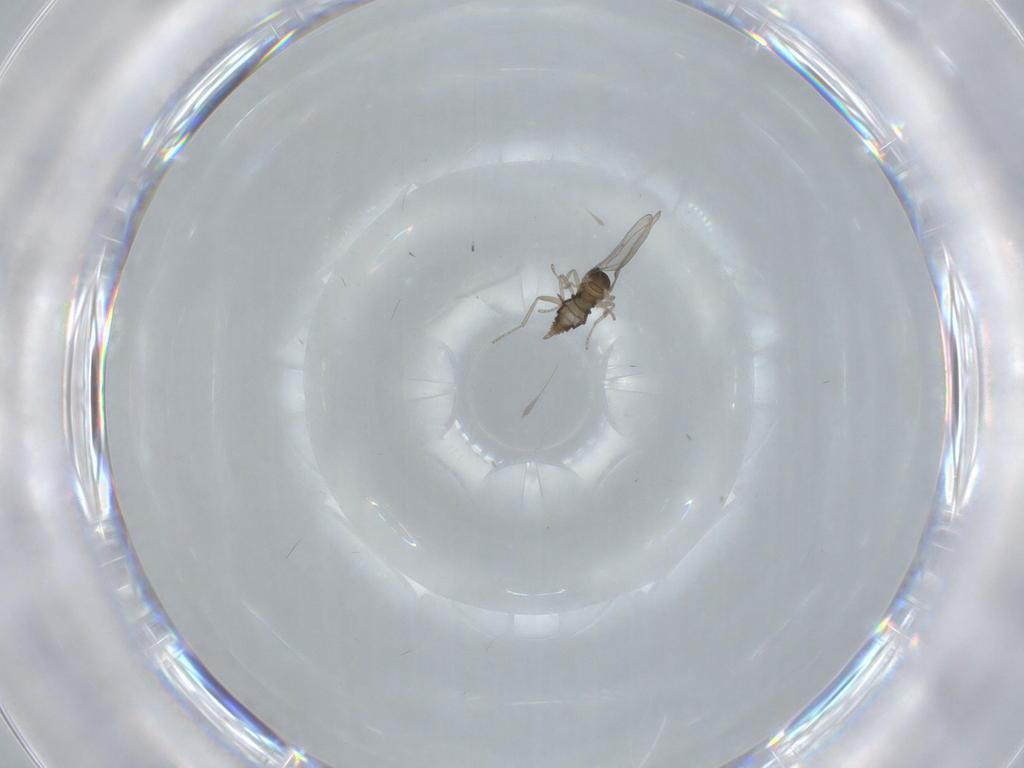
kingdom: Animalia
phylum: Arthropoda
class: Insecta
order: Diptera
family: Cecidomyiidae
